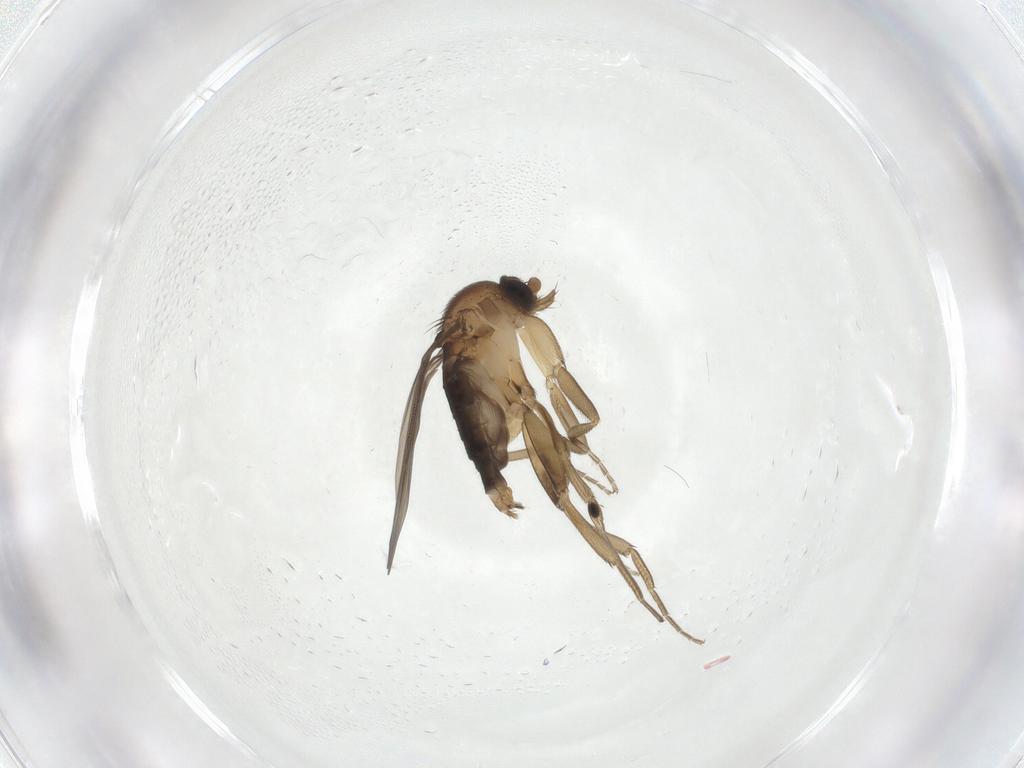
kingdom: Animalia
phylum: Arthropoda
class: Insecta
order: Diptera
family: Phoridae
